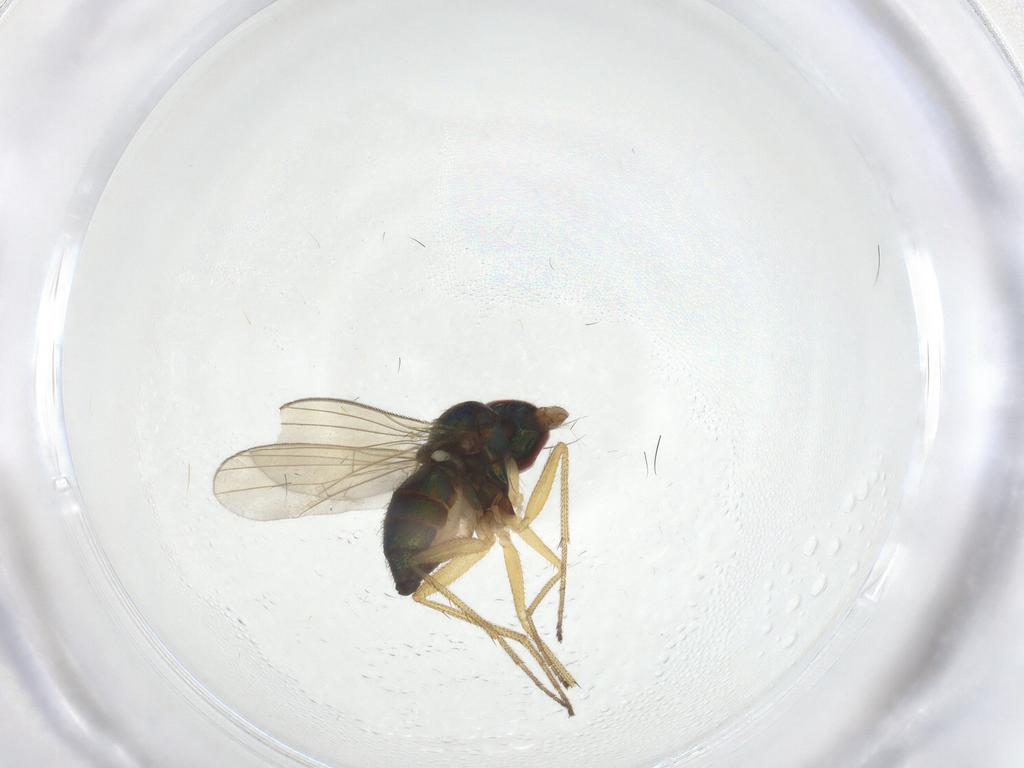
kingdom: Animalia
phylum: Arthropoda
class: Insecta
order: Diptera
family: Dolichopodidae
